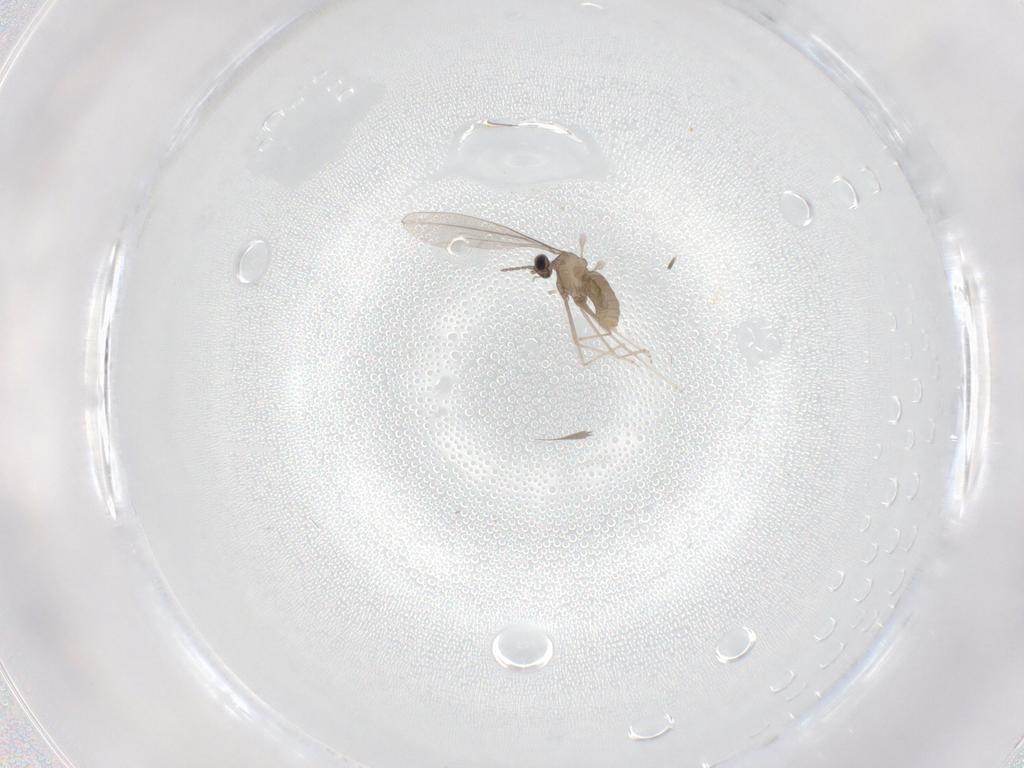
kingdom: Animalia
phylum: Arthropoda
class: Insecta
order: Diptera
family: Cecidomyiidae
